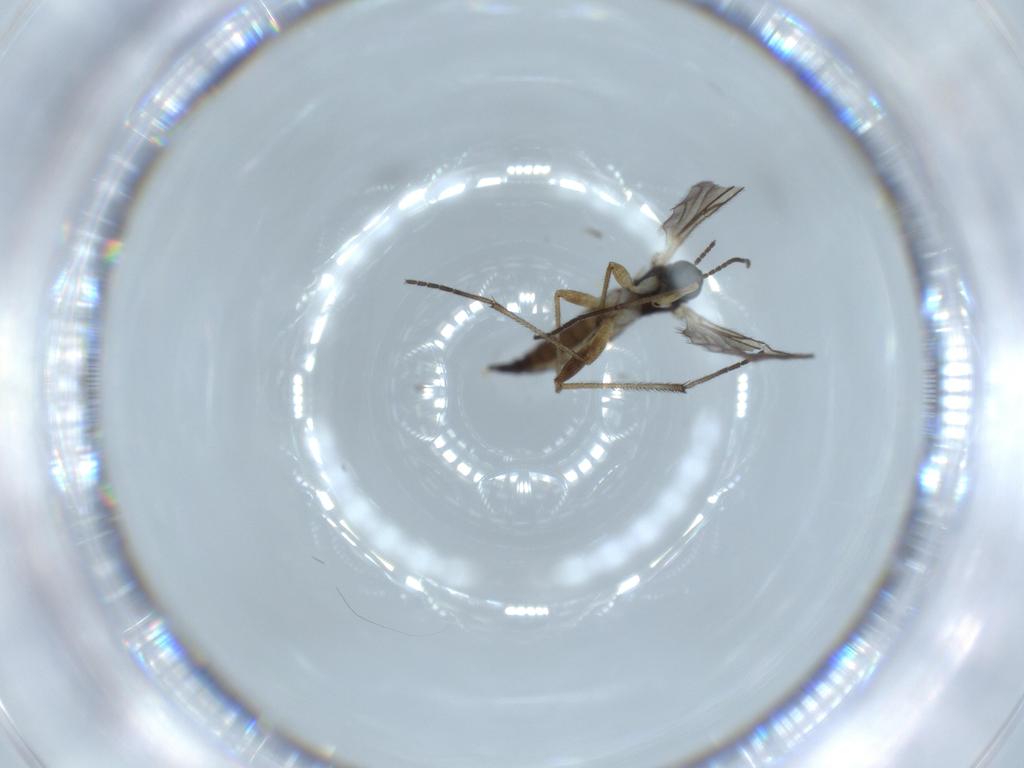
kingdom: Animalia
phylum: Arthropoda
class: Insecta
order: Diptera
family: Sciaridae
